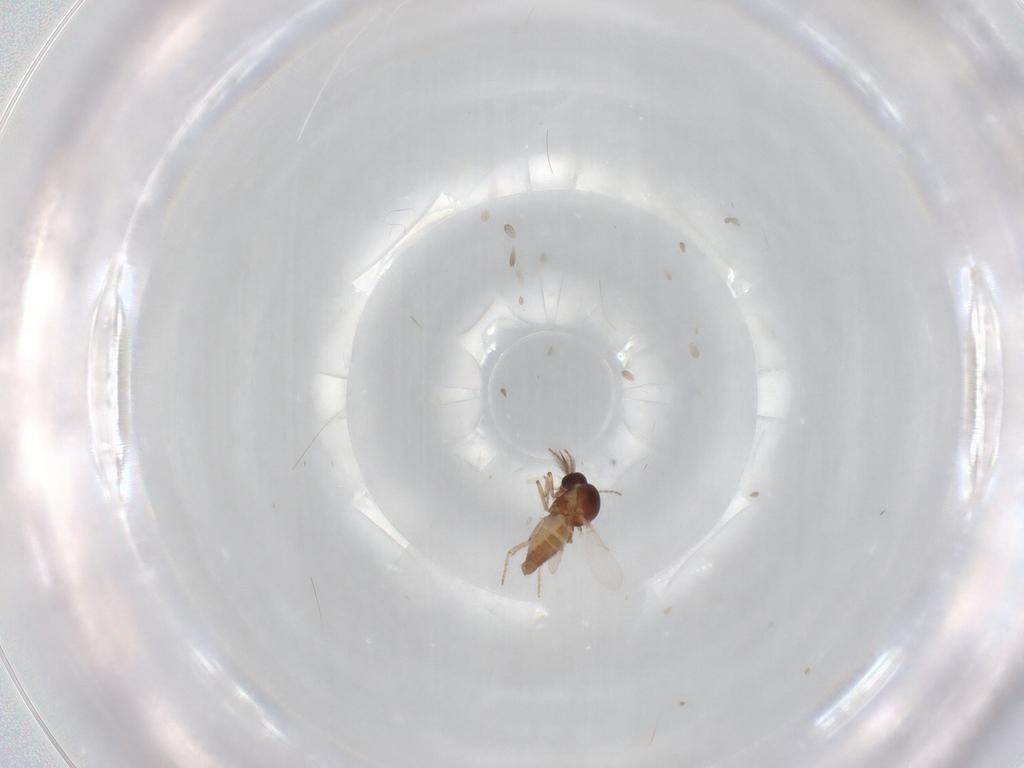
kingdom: Animalia
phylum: Arthropoda
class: Insecta
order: Diptera
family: Ceratopogonidae
